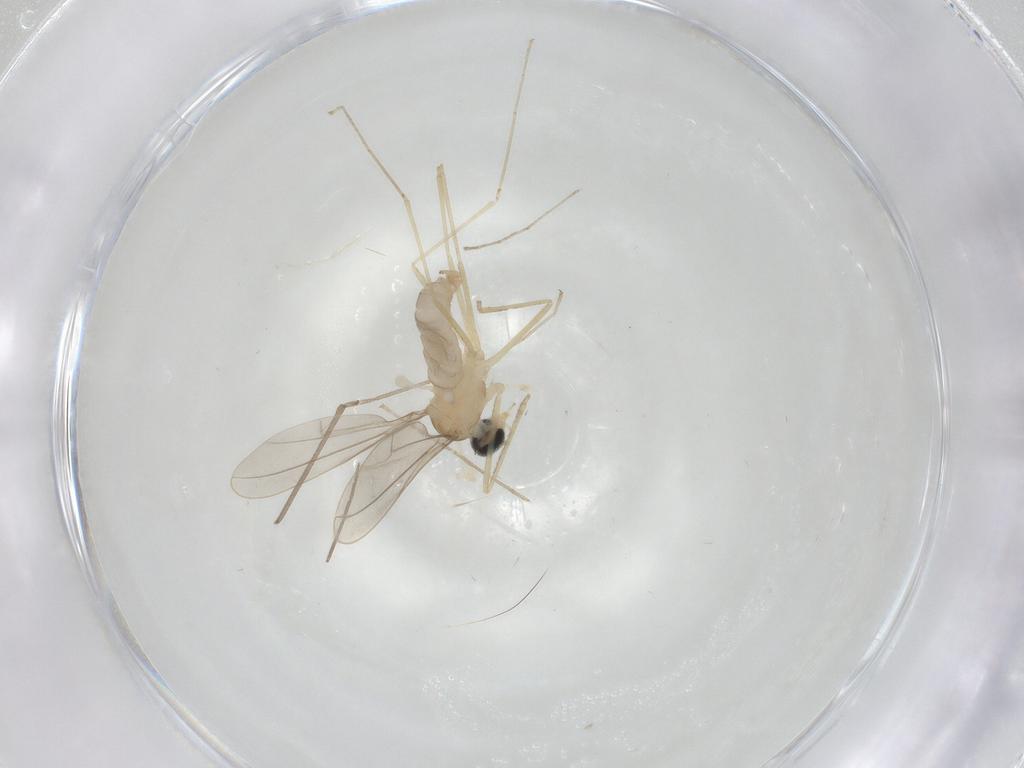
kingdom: Animalia
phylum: Arthropoda
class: Insecta
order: Diptera
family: Cecidomyiidae
